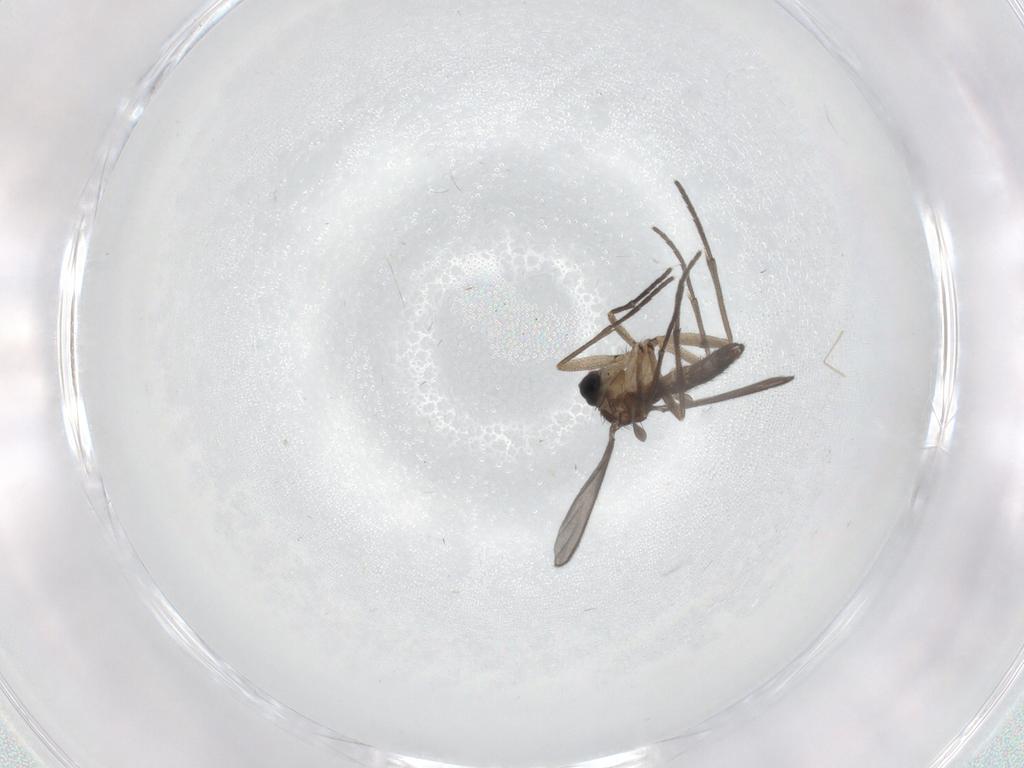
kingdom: Animalia
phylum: Arthropoda
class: Insecta
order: Diptera
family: Sciaridae
